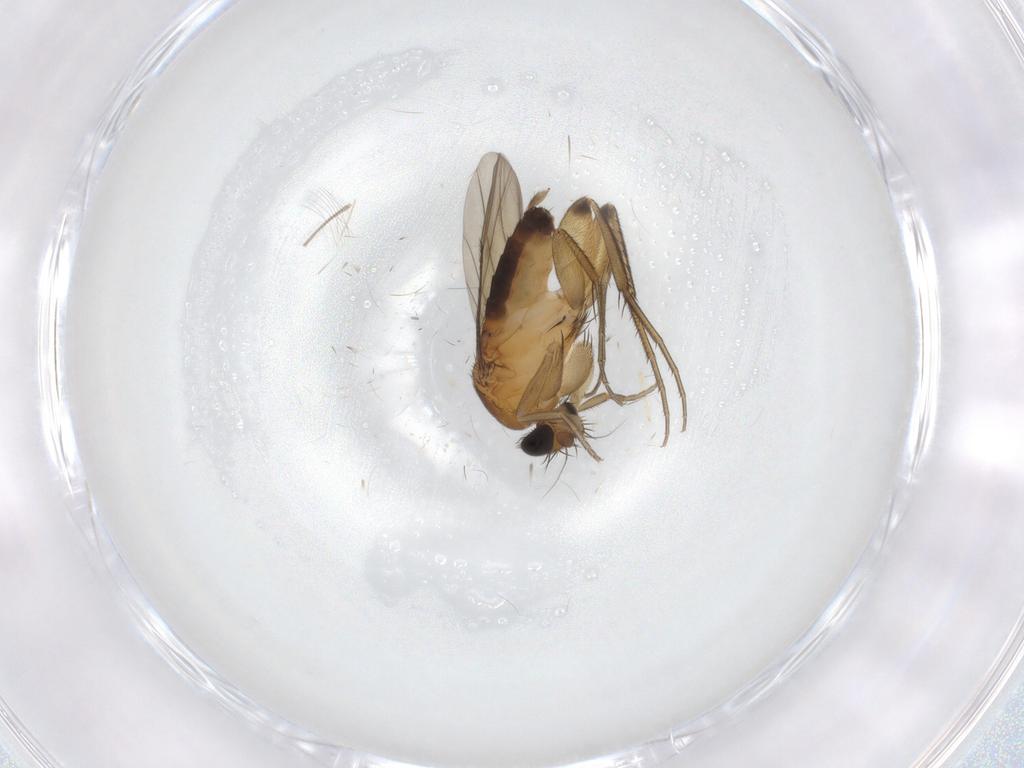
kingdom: Animalia
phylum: Arthropoda
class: Insecta
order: Diptera
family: Phoridae
